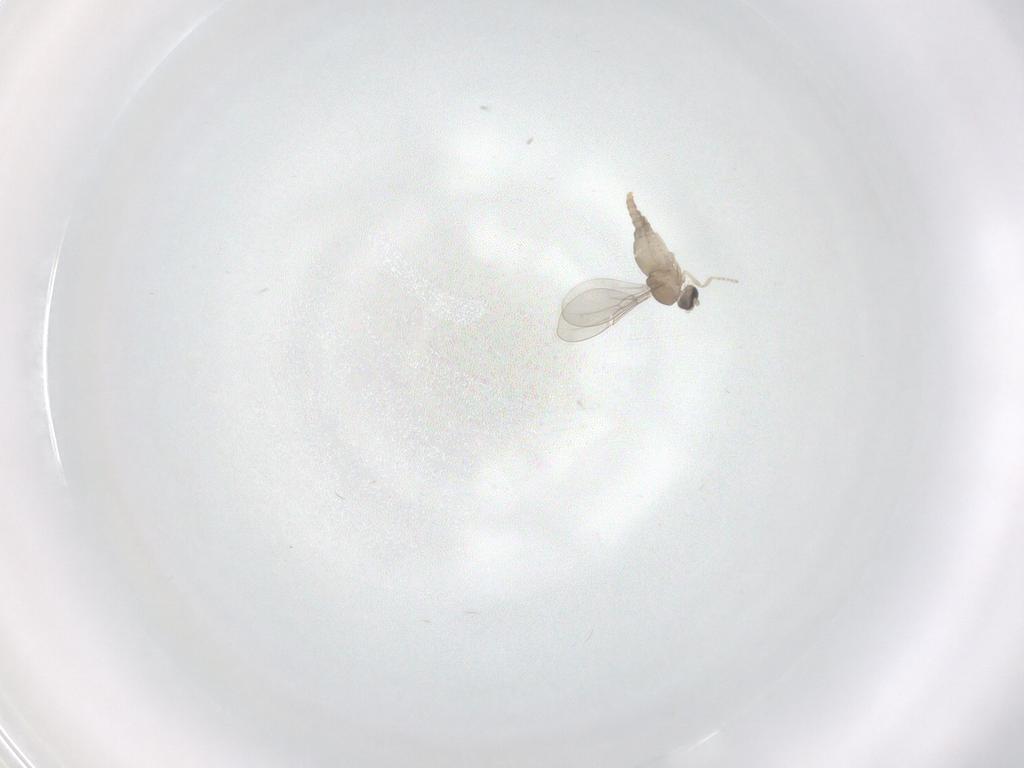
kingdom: Animalia
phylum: Arthropoda
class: Insecta
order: Diptera
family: Cecidomyiidae
